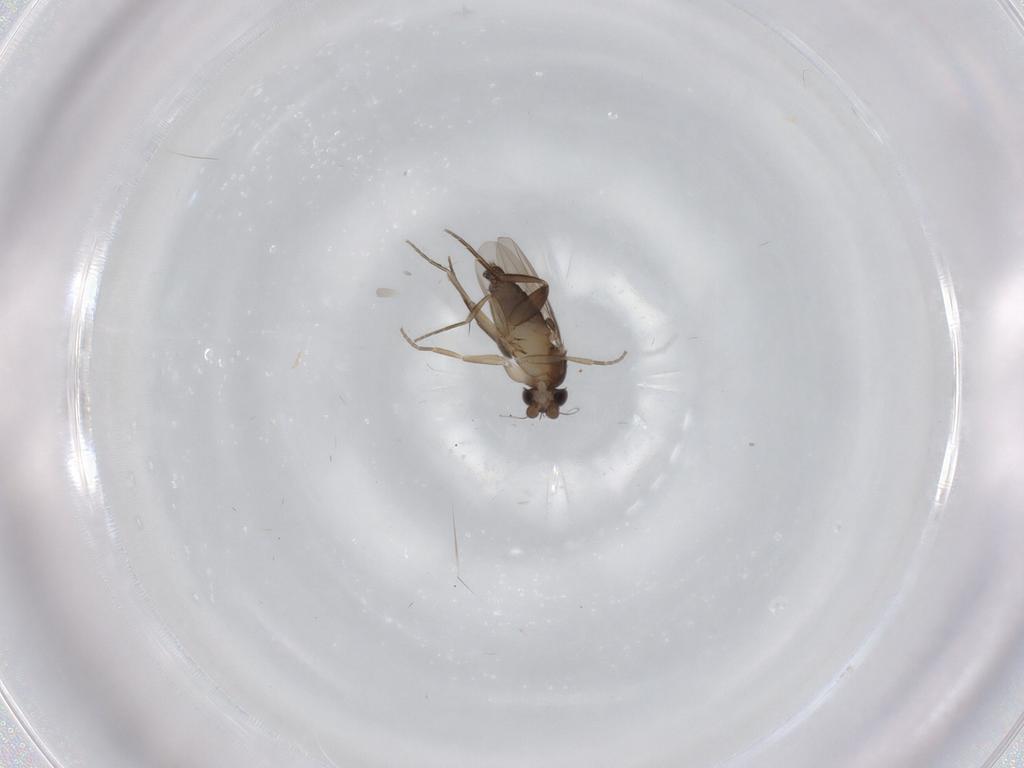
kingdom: Animalia
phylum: Arthropoda
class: Insecta
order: Diptera
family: Phoridae
